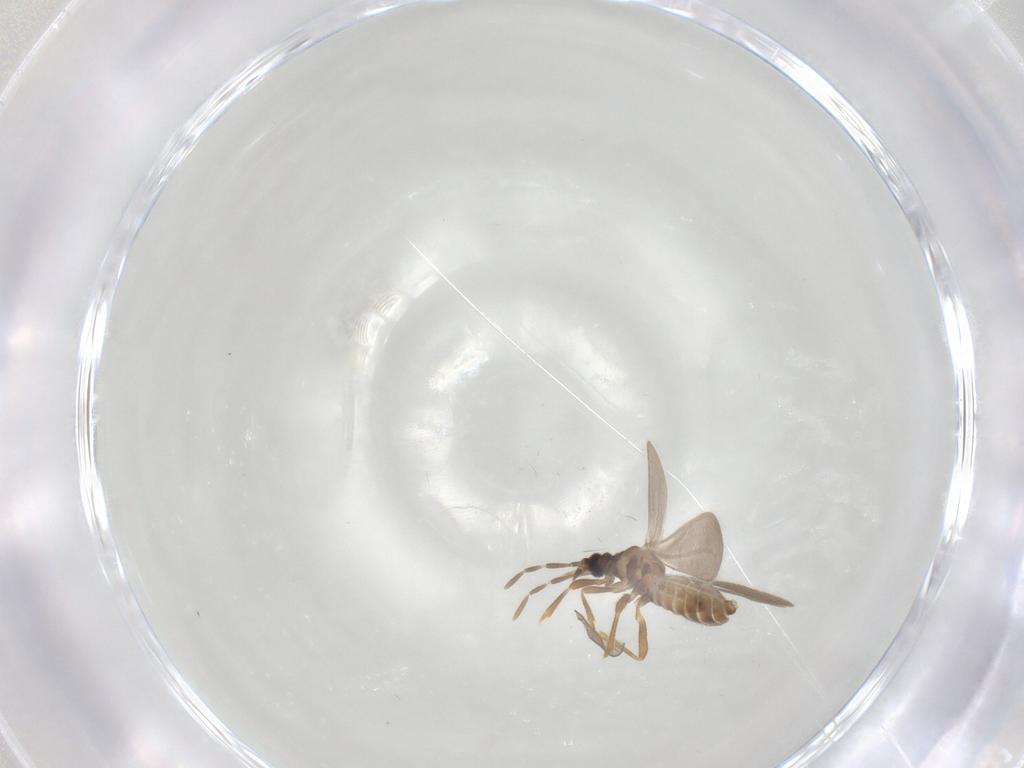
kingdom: Animalia
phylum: Arthropoda
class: Insecta
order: Hemiptera
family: Enicocephalidae
